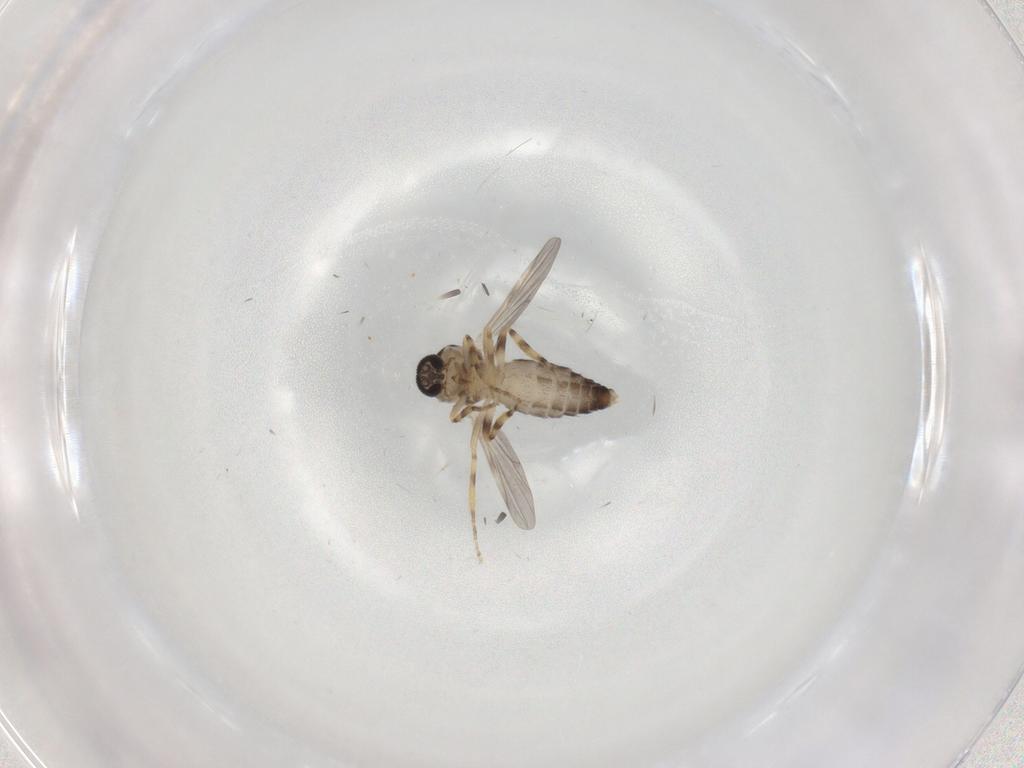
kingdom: Animalia
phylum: Arthropoda
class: Insecta
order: Diptera
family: Ceratopogonidae
